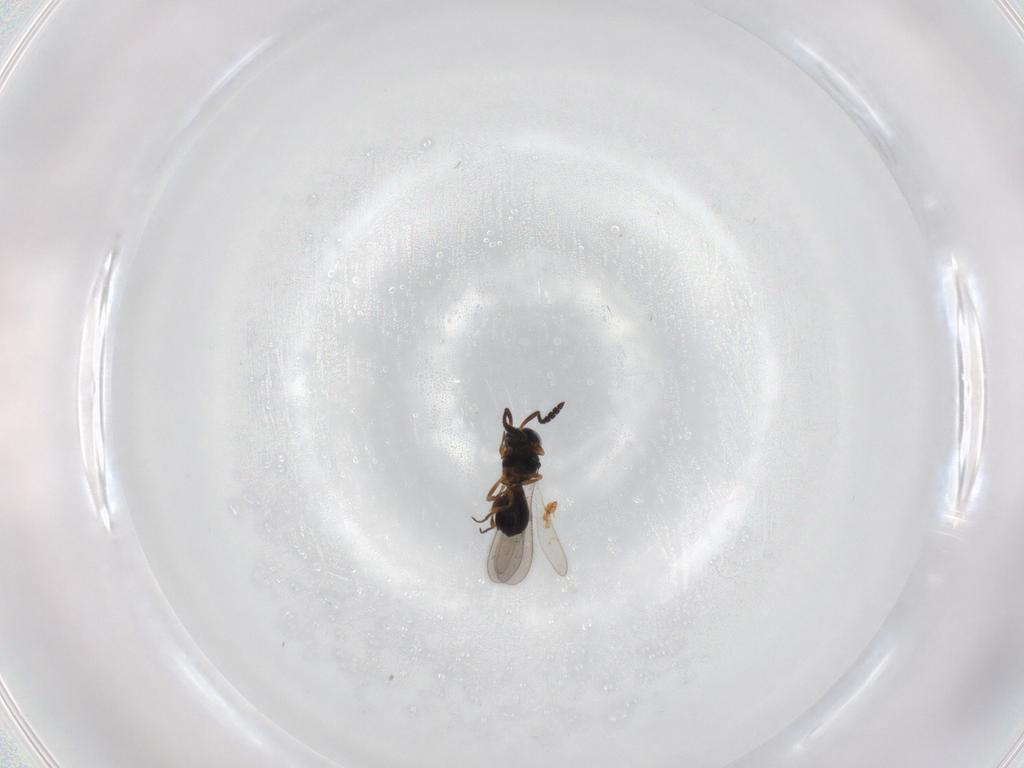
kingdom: Animalia
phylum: Arthropoda
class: Insecta
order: Hymenoptera
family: Scelionidae
